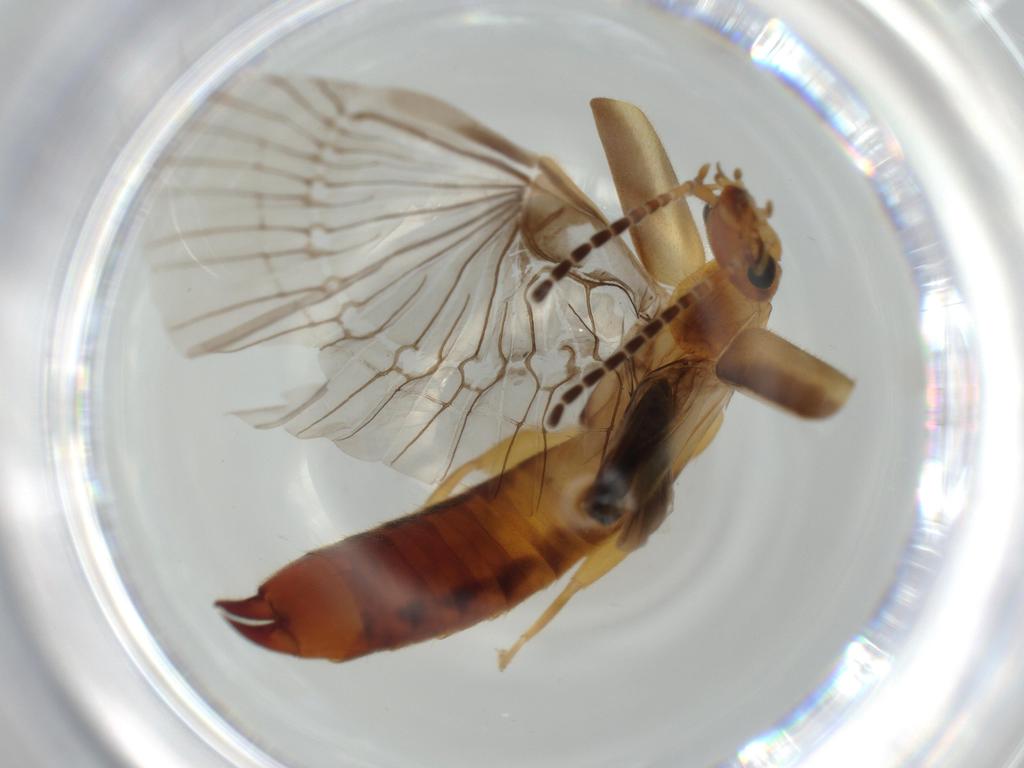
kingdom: Animalia
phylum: Arthropoda
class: Insecta
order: Dermaptera
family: Forficulidae
